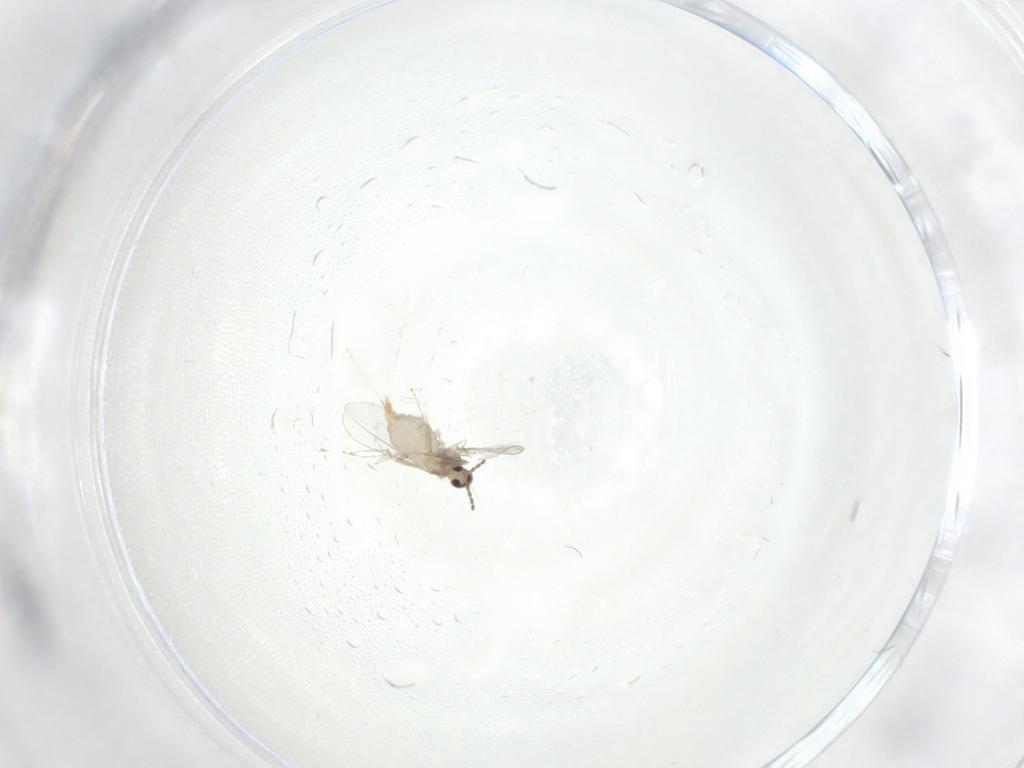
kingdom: Animalia
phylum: Arthropoda
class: Insecta
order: Diptera
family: Cecidomyiidae
